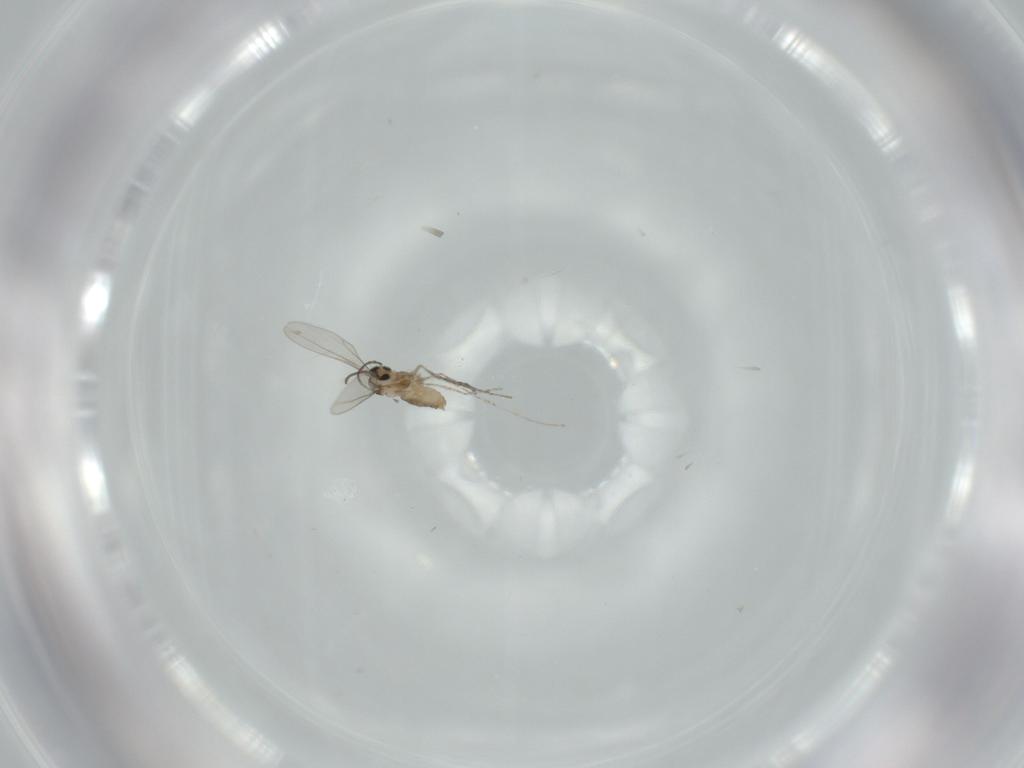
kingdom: Animalia
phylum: Arthropoda
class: Insecta
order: Diptera
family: Cecidomyiidae
